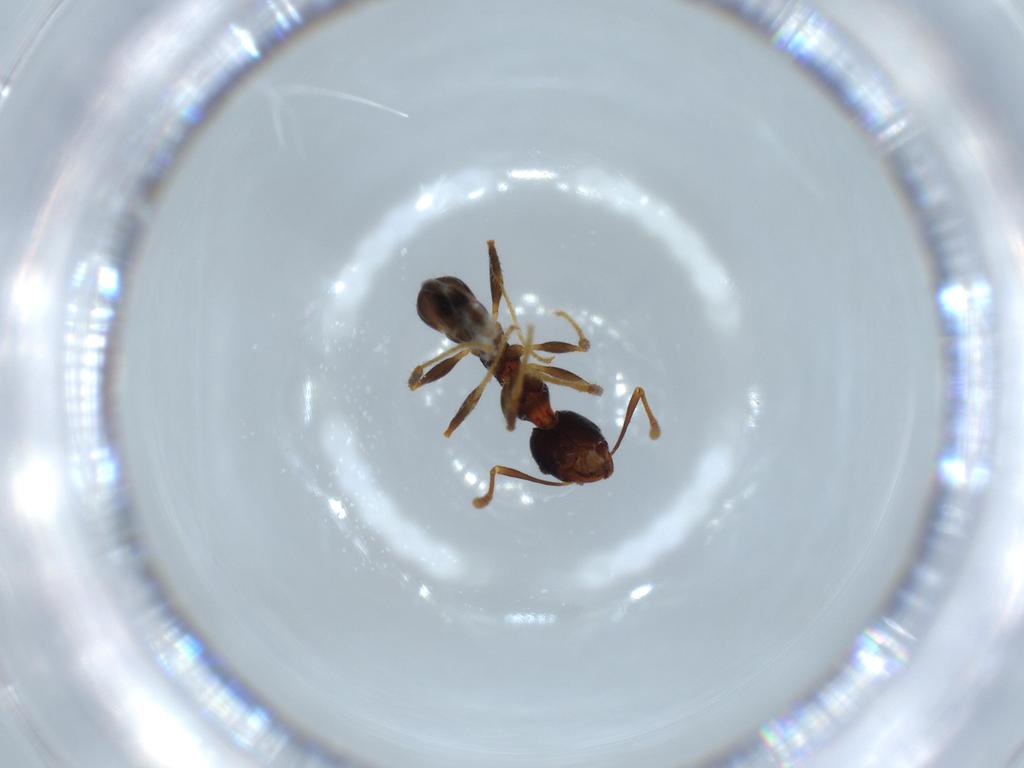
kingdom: Animalia
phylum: Arthropoda
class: Insecta
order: Hymenoptera
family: Formicidae
